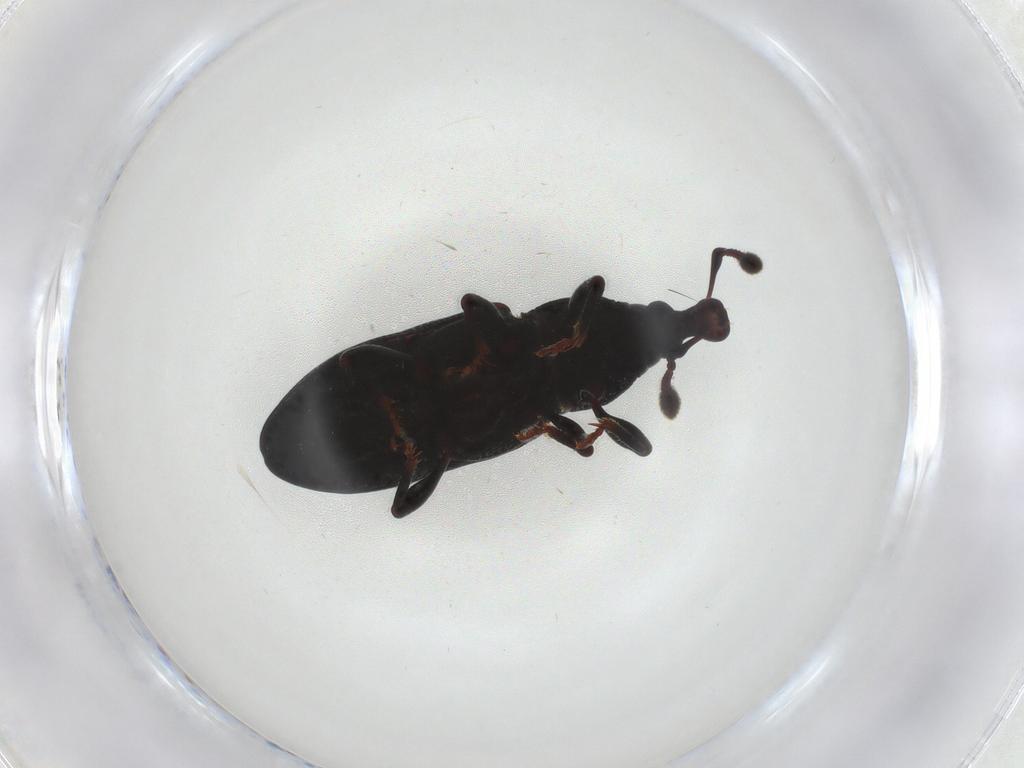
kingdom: Animalia
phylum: Arthropoda
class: Insecta
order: Coleoptera
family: Curculionidae
